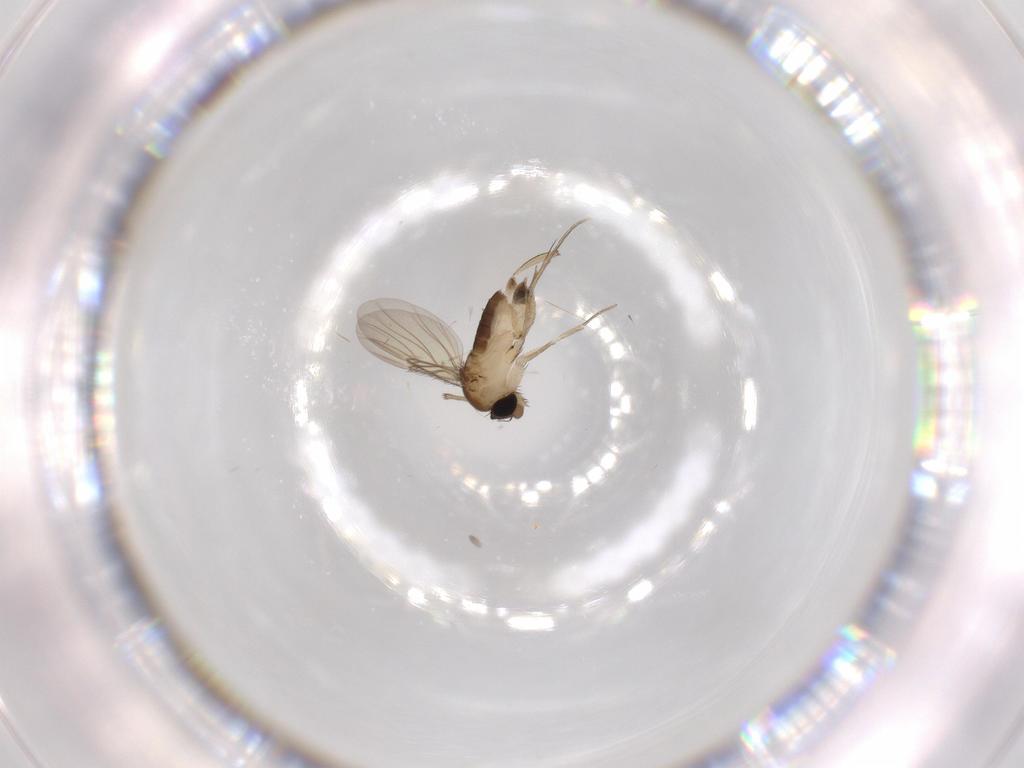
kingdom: Animalia
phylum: Arthropoda
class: Insecta
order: Diptera
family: Phoridae
